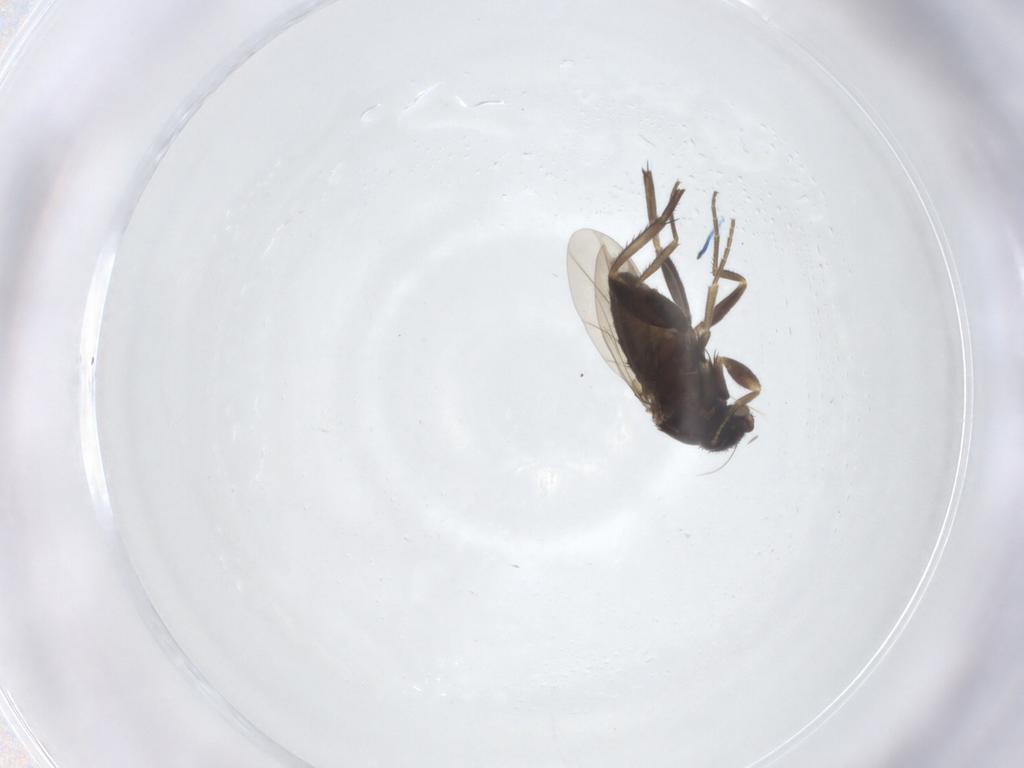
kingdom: Animalia
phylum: Arthropoda
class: Insecta
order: Diptera
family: Phoridae
